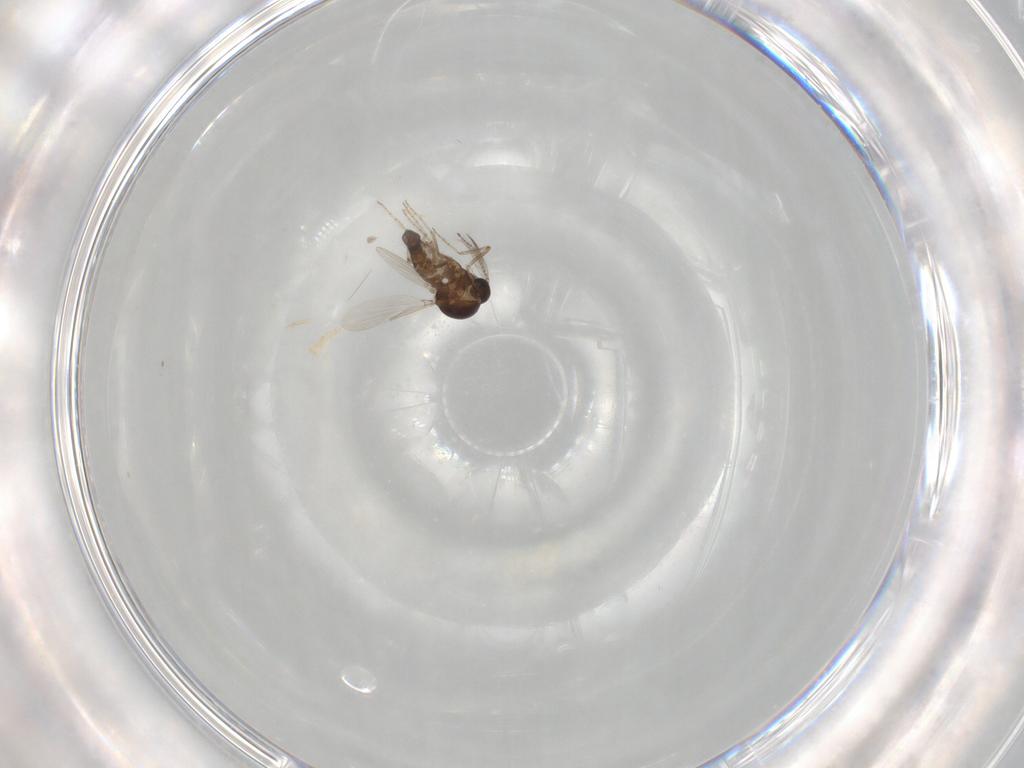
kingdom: Animalia
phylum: Arthropoda
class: Insecta
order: Diptera
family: Ceratopogonidae
